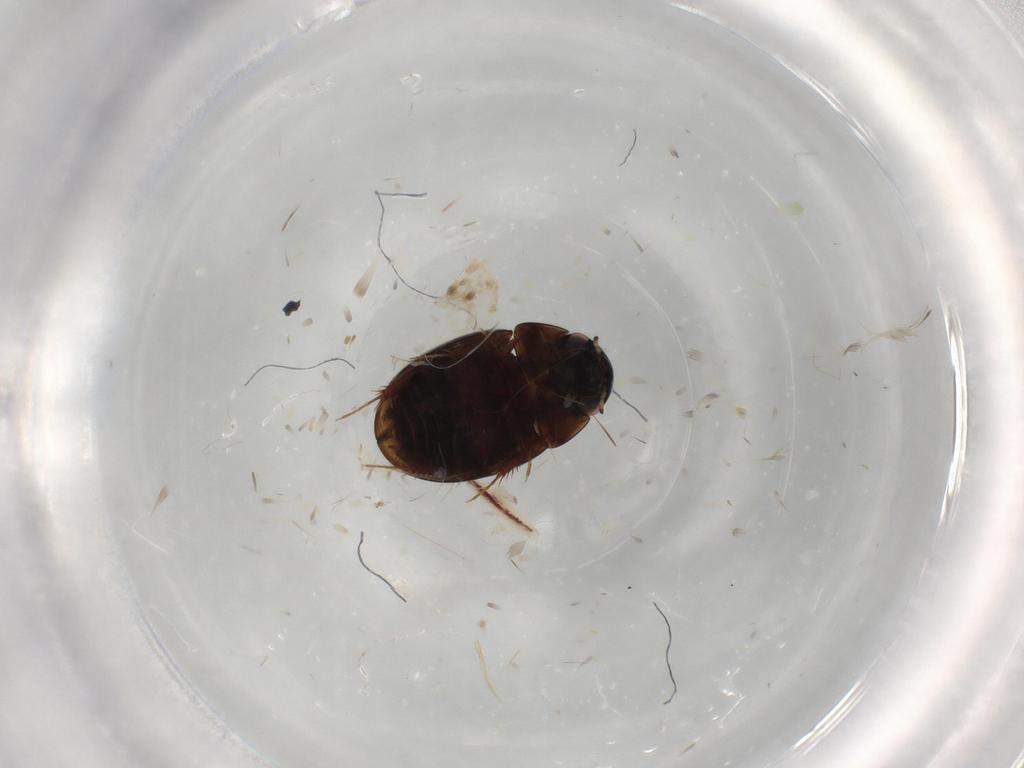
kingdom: Animalia
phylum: Arthropoda
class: Insecta
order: Coleoptera
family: Hydrophilidae
